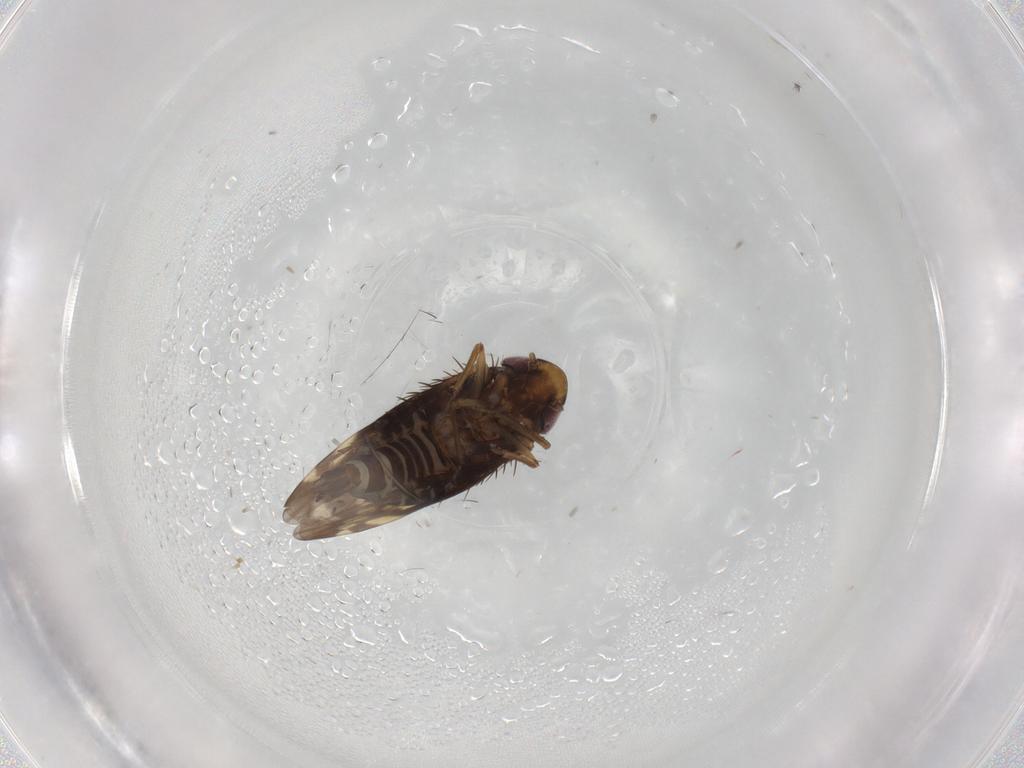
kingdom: Animalia
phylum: Arthropoda
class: Insecta
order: Hemiptera
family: Cicadellidae
